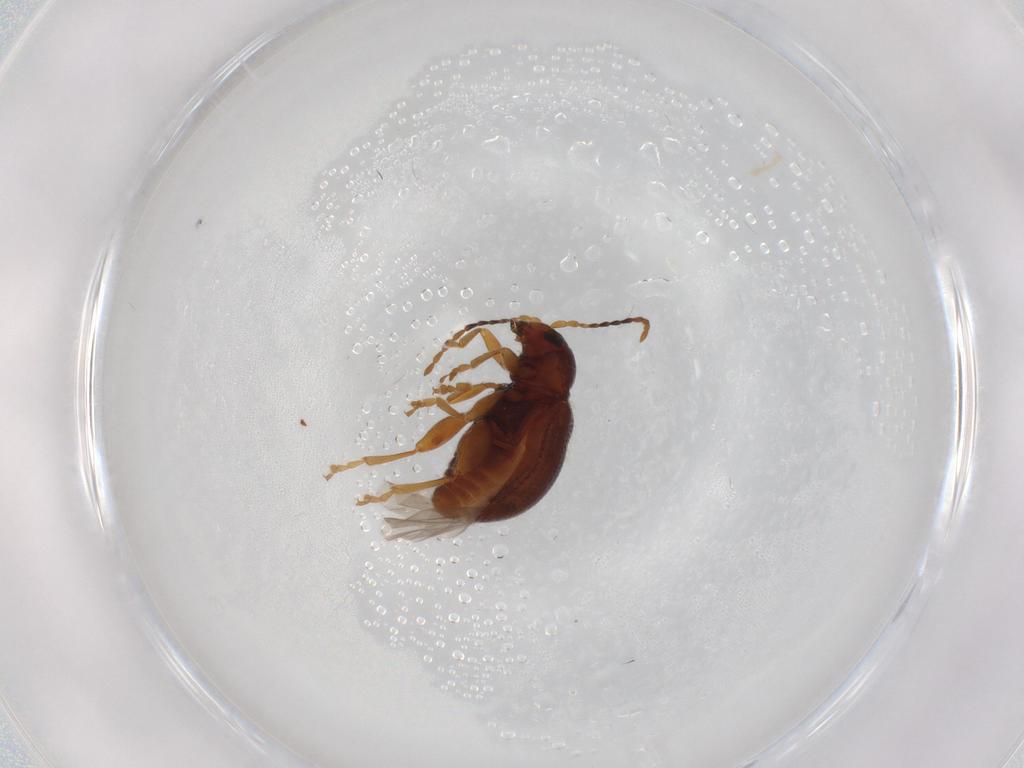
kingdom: Animalia
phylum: Arthropoda
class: Insecta
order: Coleoptera
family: Chrysomelidae
